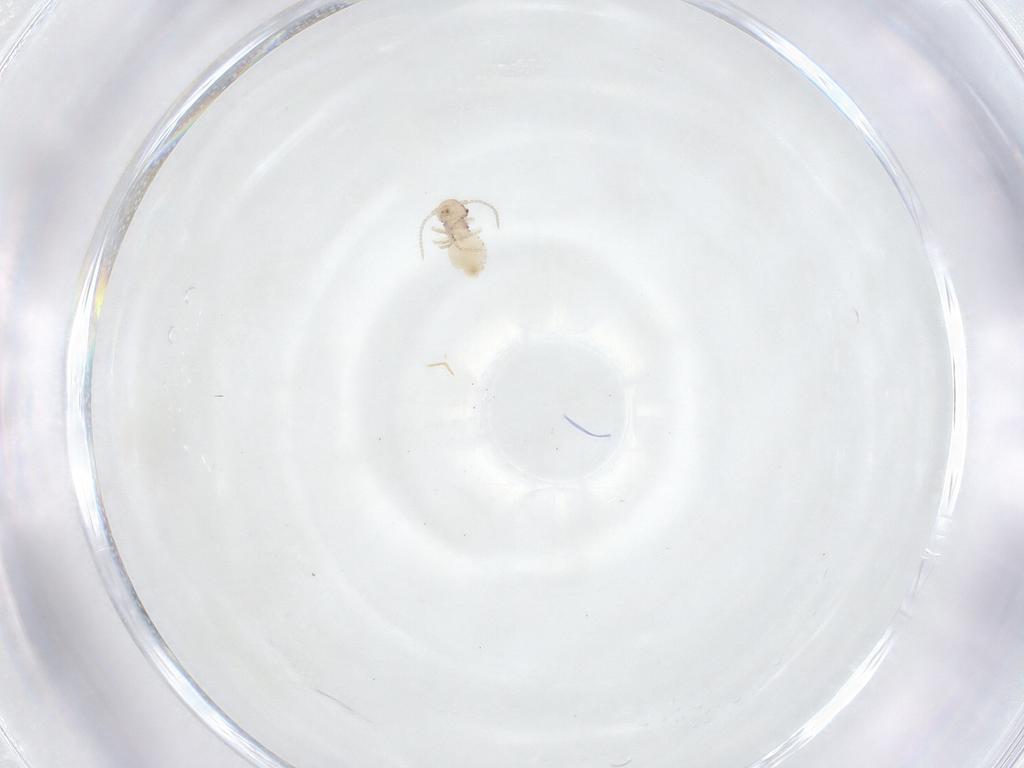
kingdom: Animalia
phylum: Arthropoda
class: Insecta
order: Psocodea
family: Ectopsocidae
